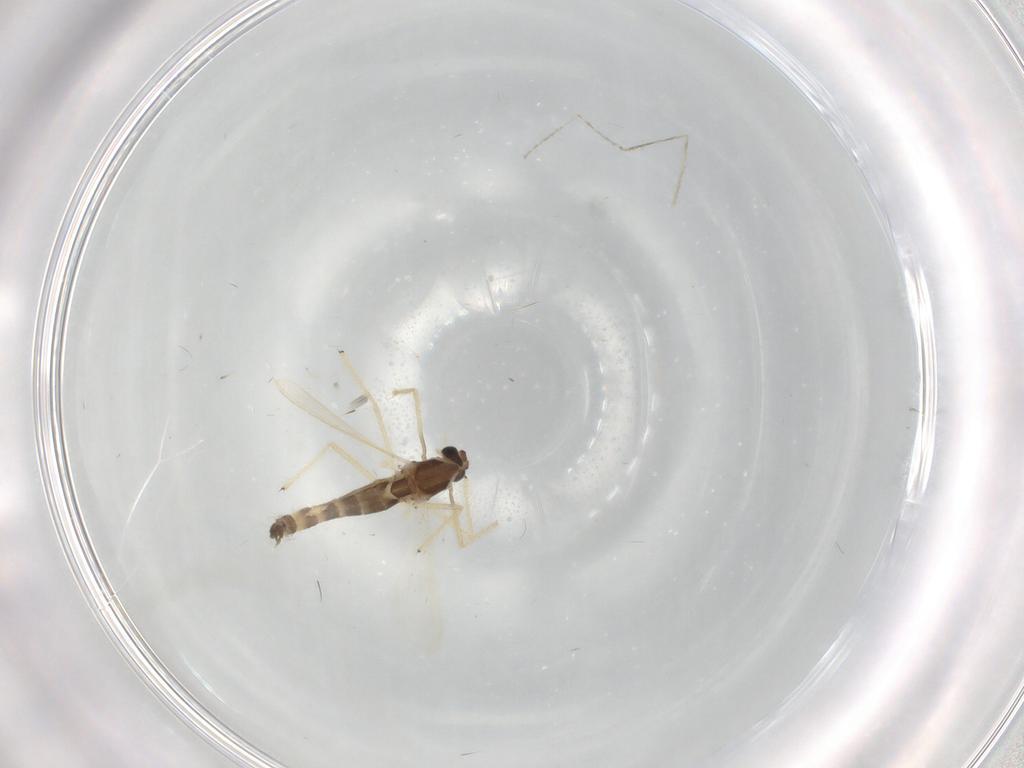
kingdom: Animalia
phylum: Arthropoda
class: Insecta
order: Diptera
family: Chironomidae
